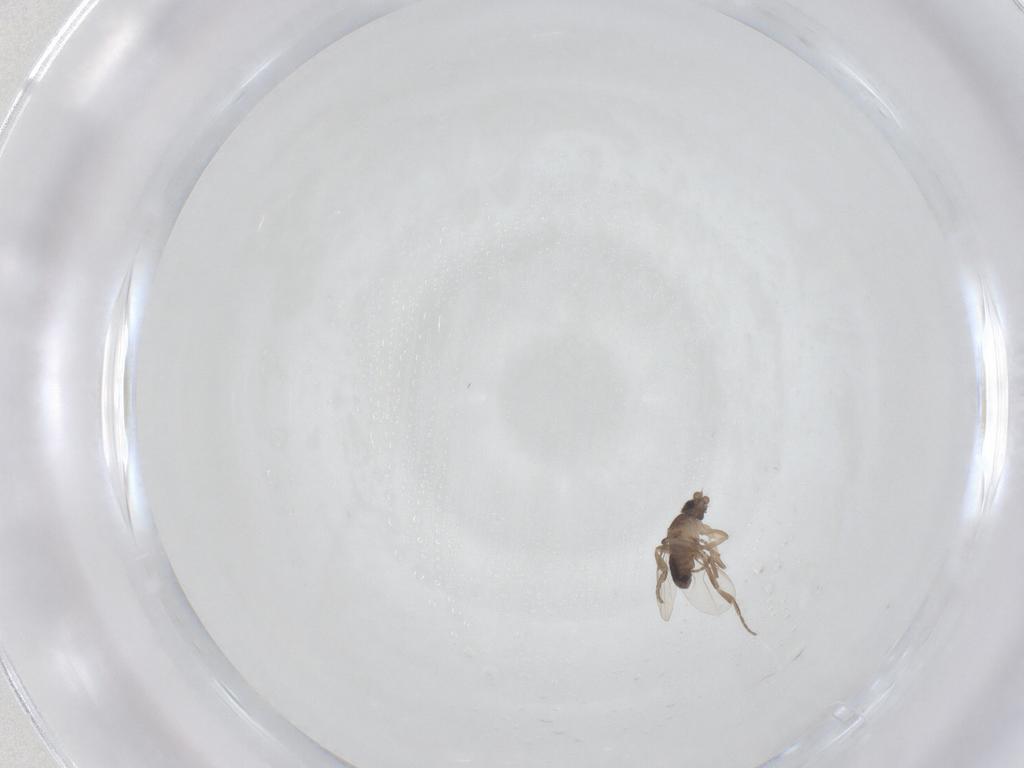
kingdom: Animalia
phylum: Arthropoda
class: Insecta
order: Diptera
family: Phoridae
